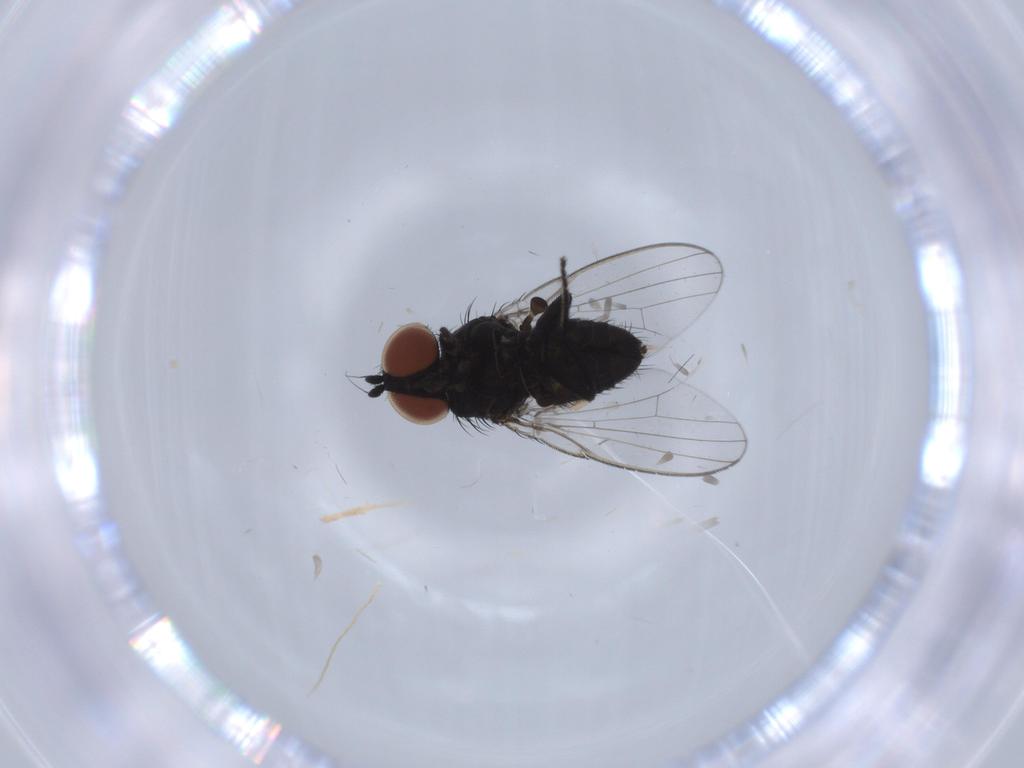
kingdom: Animalia
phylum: Arthropoda
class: Insecta
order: Diptera
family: Milichiidae
